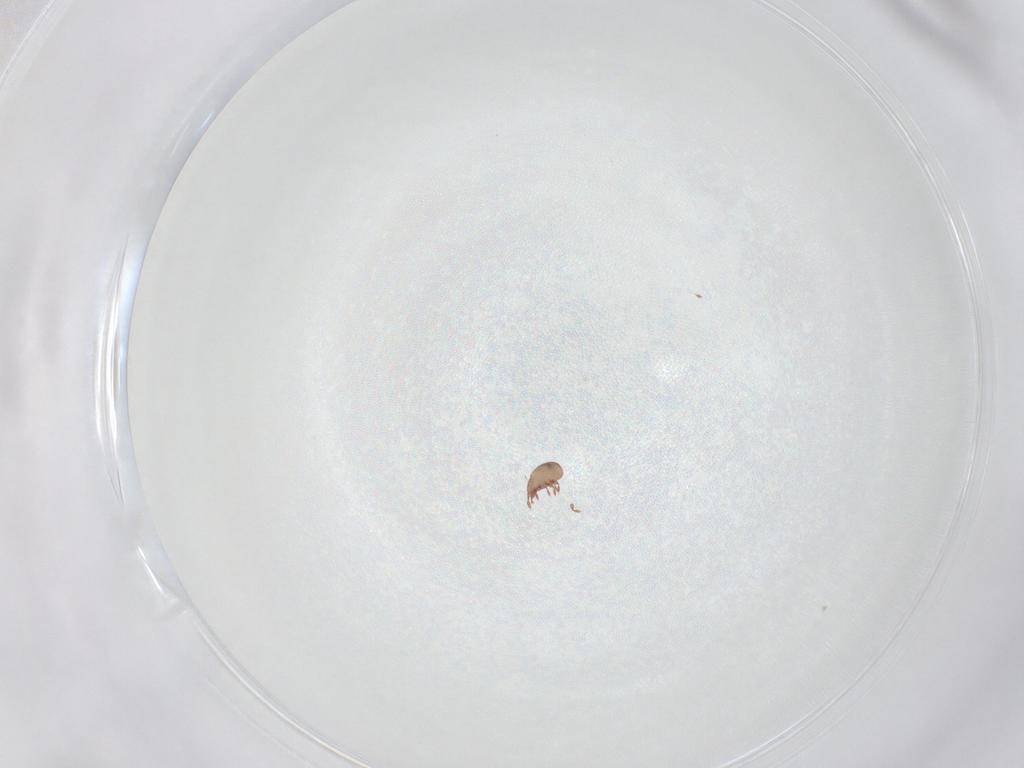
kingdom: Animalia
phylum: Arthropoda
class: Arachnida
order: Sarcoptiformes
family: Eremaeidae
